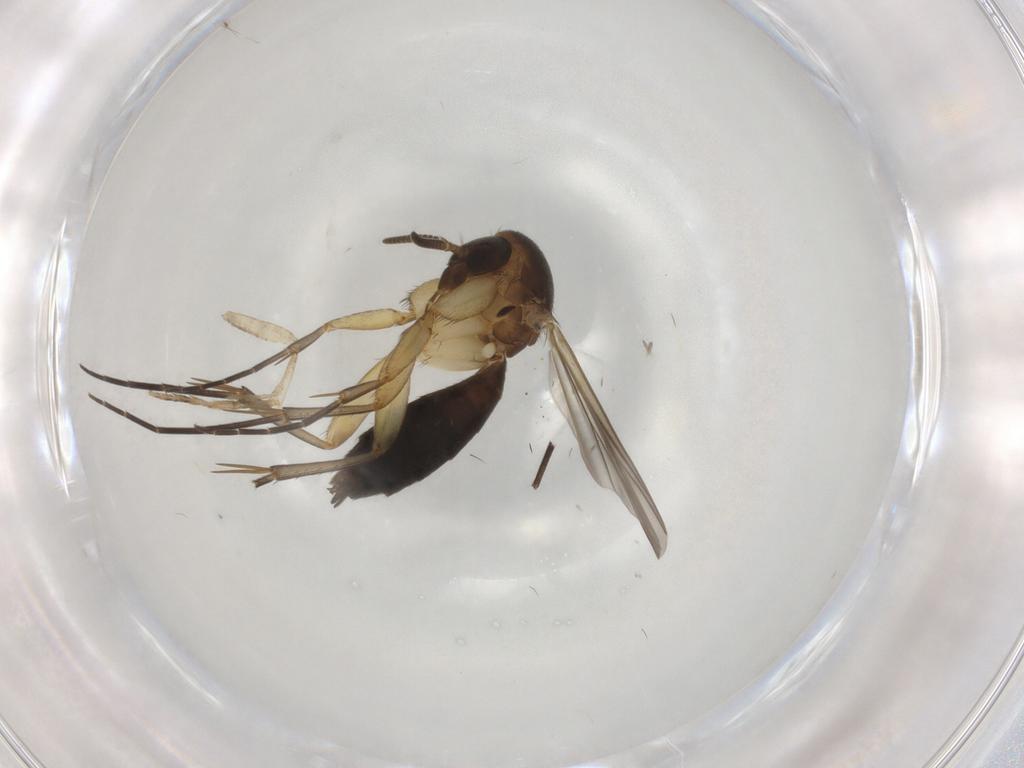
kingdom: Animalia
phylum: Arthropoda
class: Insecta
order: Diptera
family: Mycetophilidae
